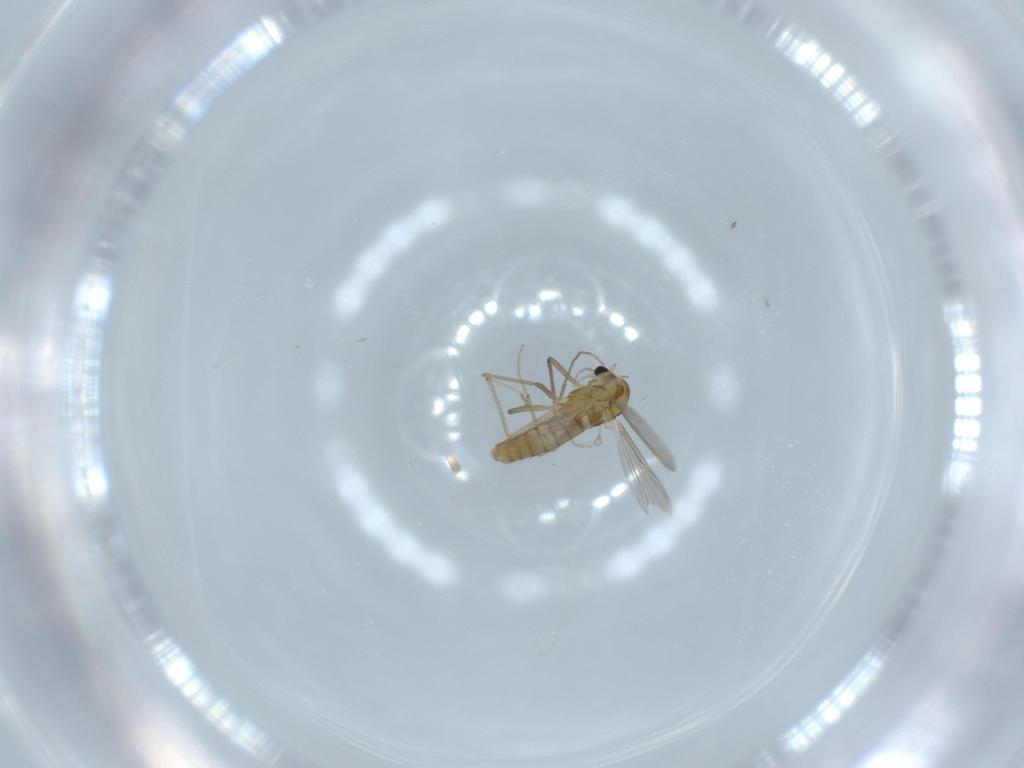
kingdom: Animalia
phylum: Arthropoda
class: Insecta
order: Diptera
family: Chironomidae
